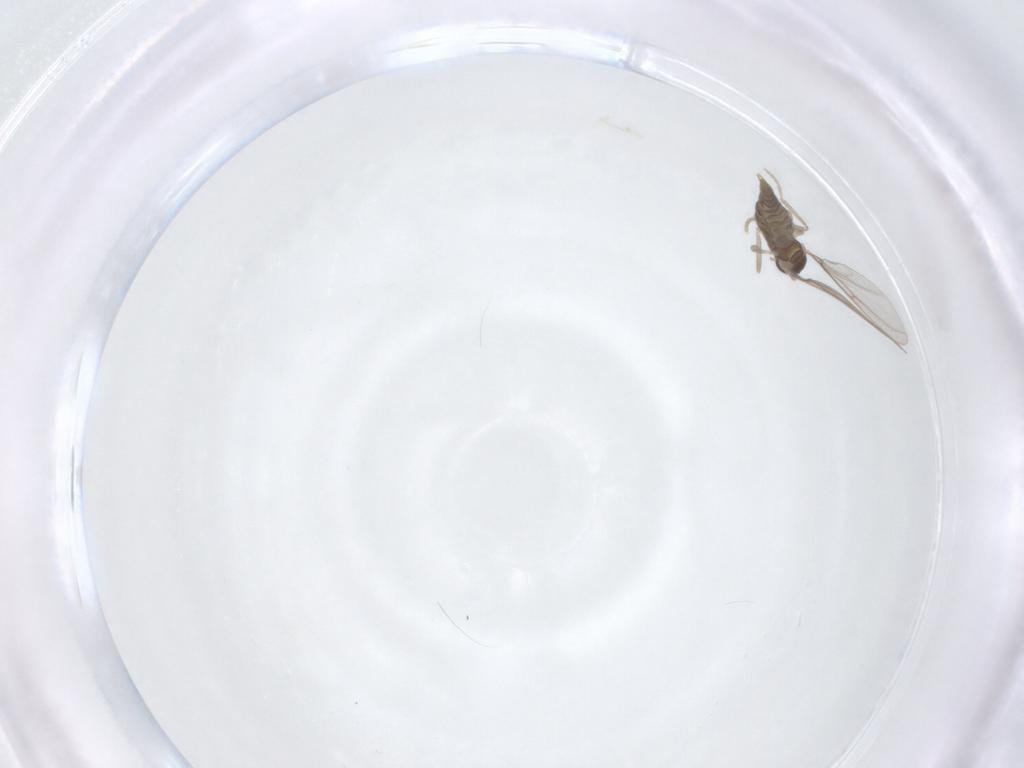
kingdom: Animalia
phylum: Arthropoda
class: Insecta
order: Diptera
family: Cecidomyiidae
